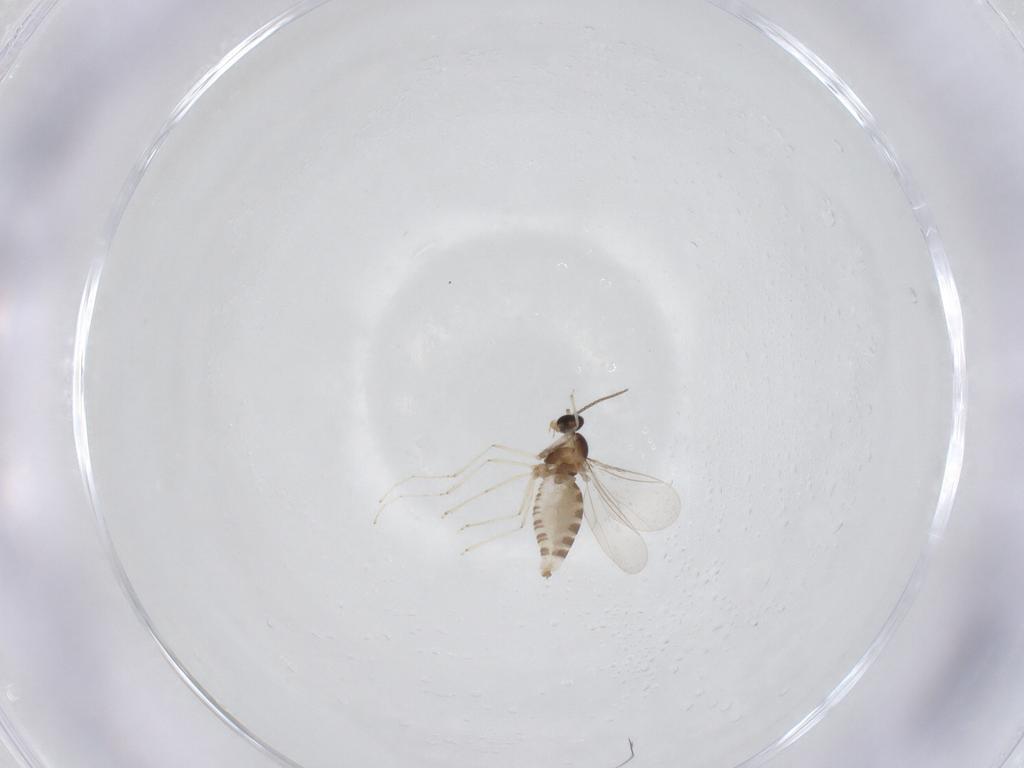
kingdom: Animalia
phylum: Arthropoda
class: Insecta
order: Diptera
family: Cecidomyiidae
